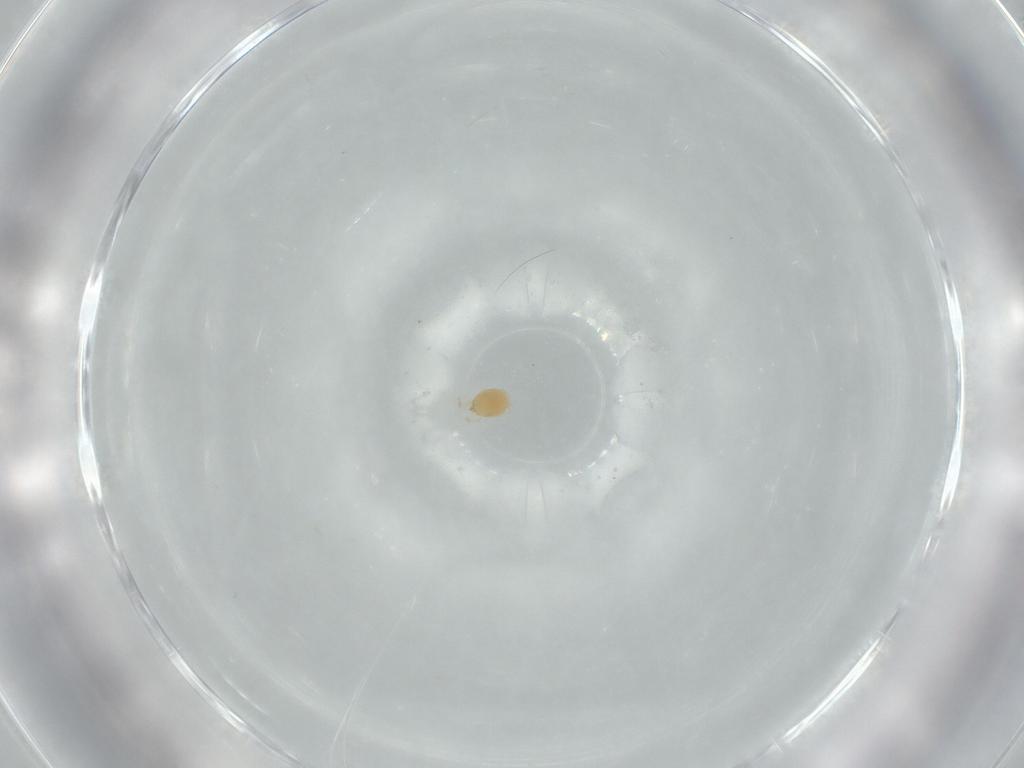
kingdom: Animalia
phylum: Arthropoda
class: Arachnida
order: Trombidiformes
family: Limnesiidae
